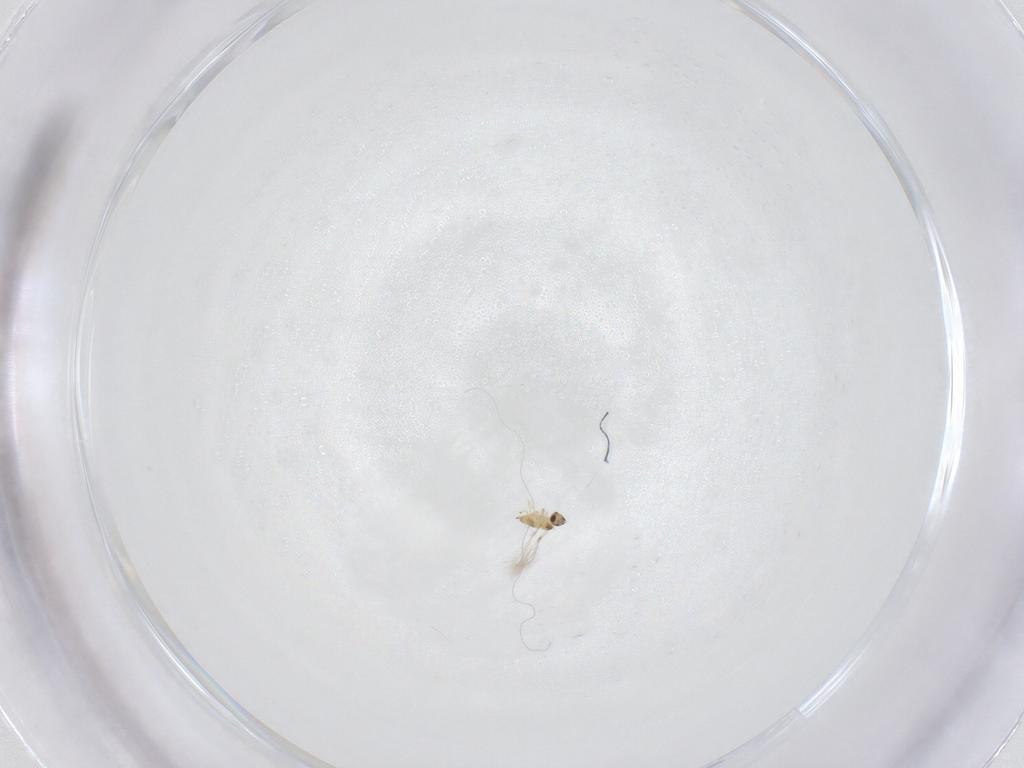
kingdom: Animalia
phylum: Arthropoda
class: Insecta
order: Hymenoptera
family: Mymaridae
